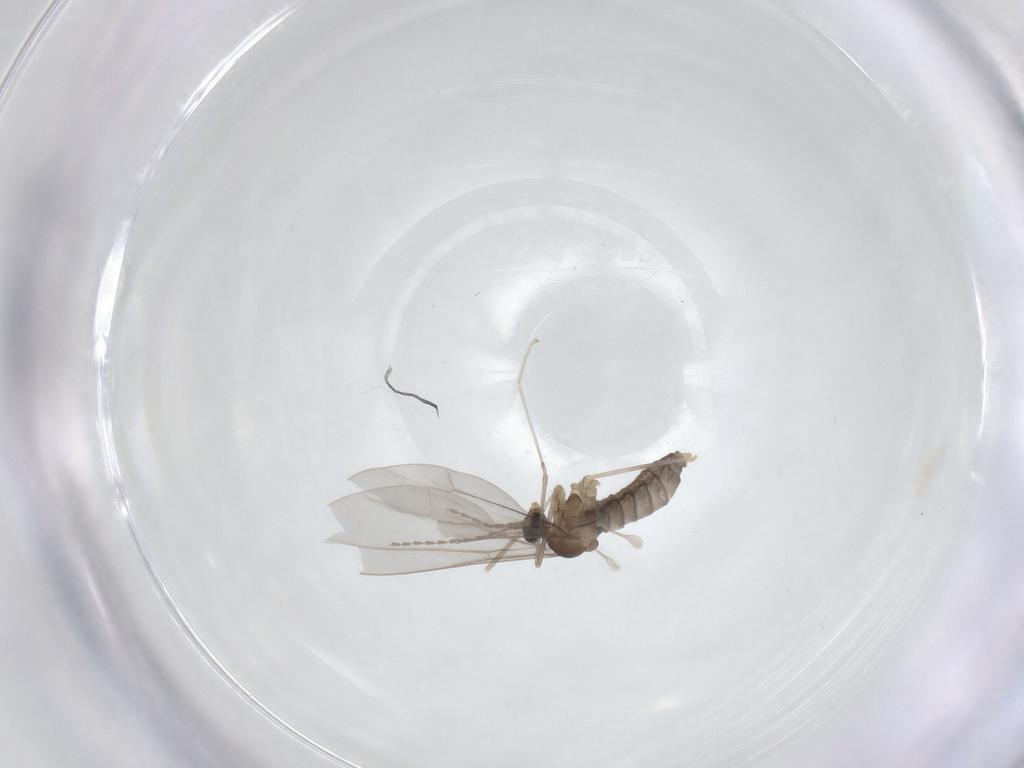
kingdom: Animalia
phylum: Arthropoda
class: Insecta
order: Diptera
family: Cecidomyiidae
